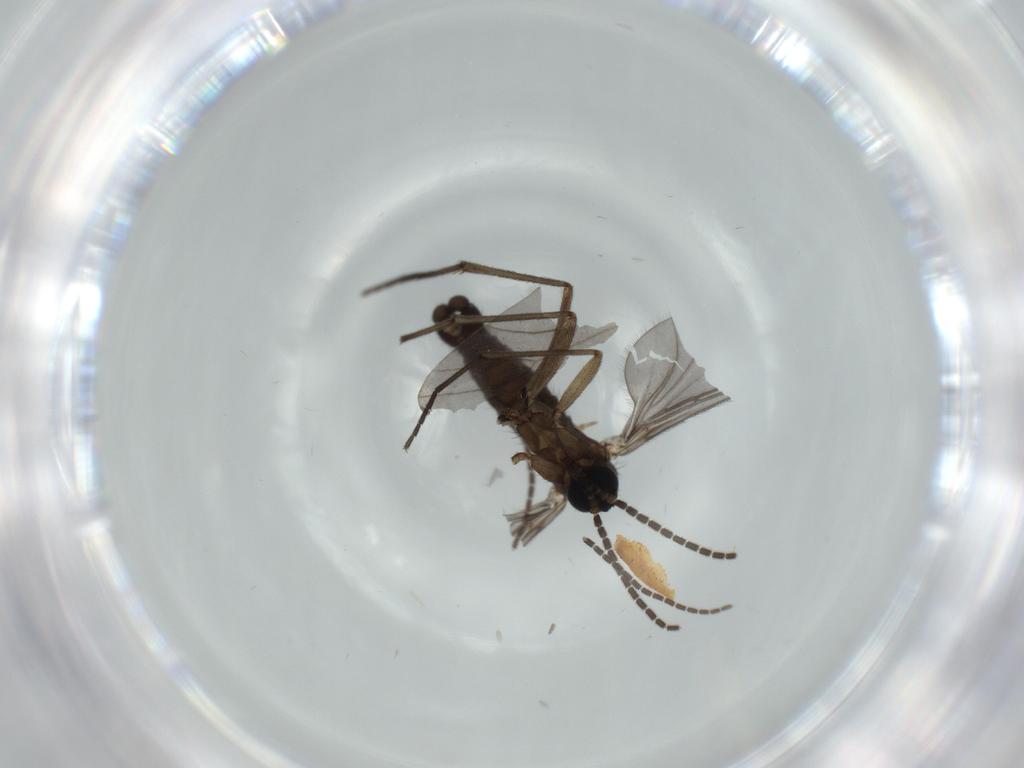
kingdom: Animalia
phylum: Arthropoda
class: Insecta
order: Diptera
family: Sciaridae
